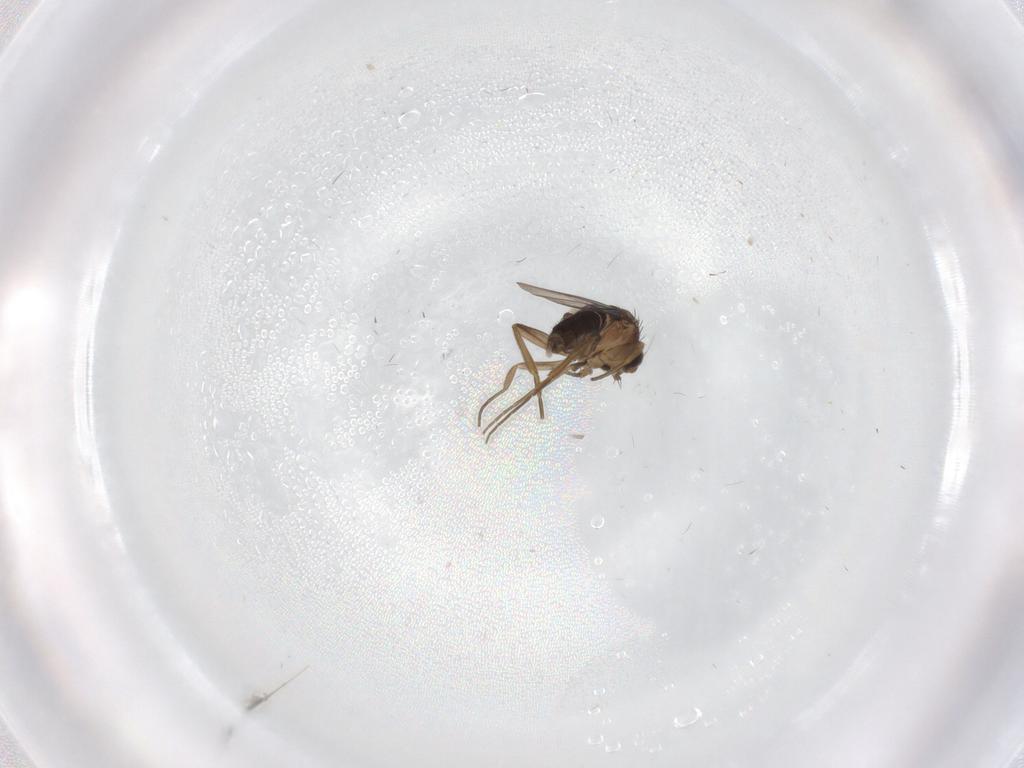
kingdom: Animalia
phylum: Arthropoda
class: Insecta
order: Diptera
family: Phoridae
